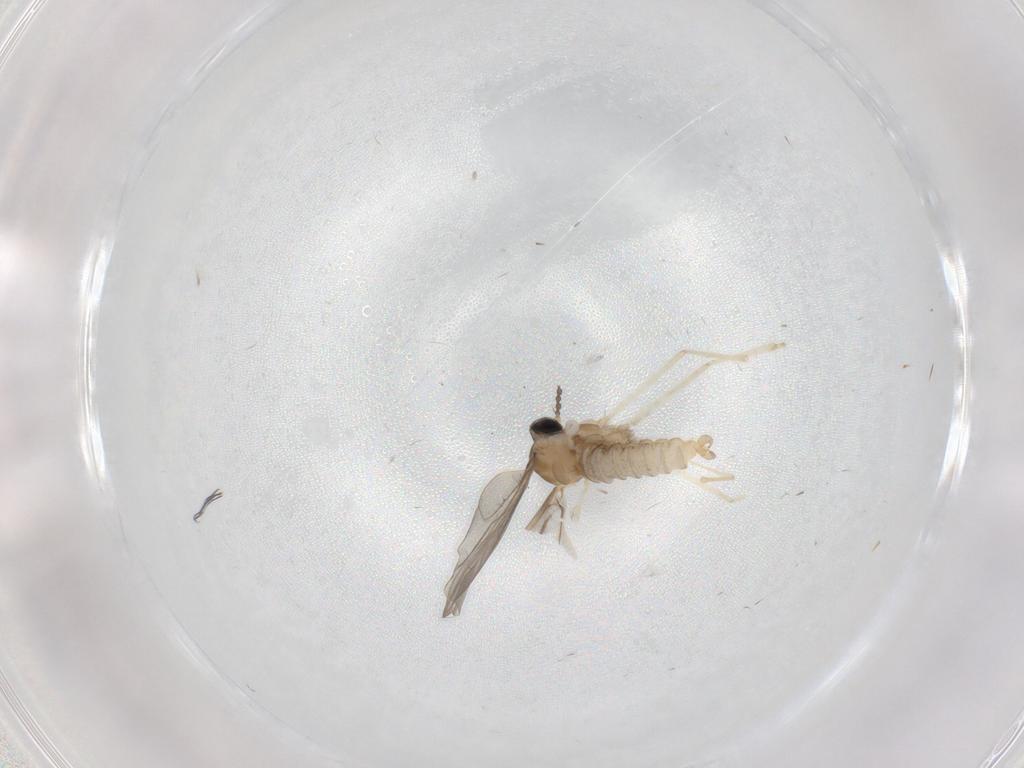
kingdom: Animalia
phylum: Arthropoda
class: Insecta
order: Diptera
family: Cecidomyiidae
